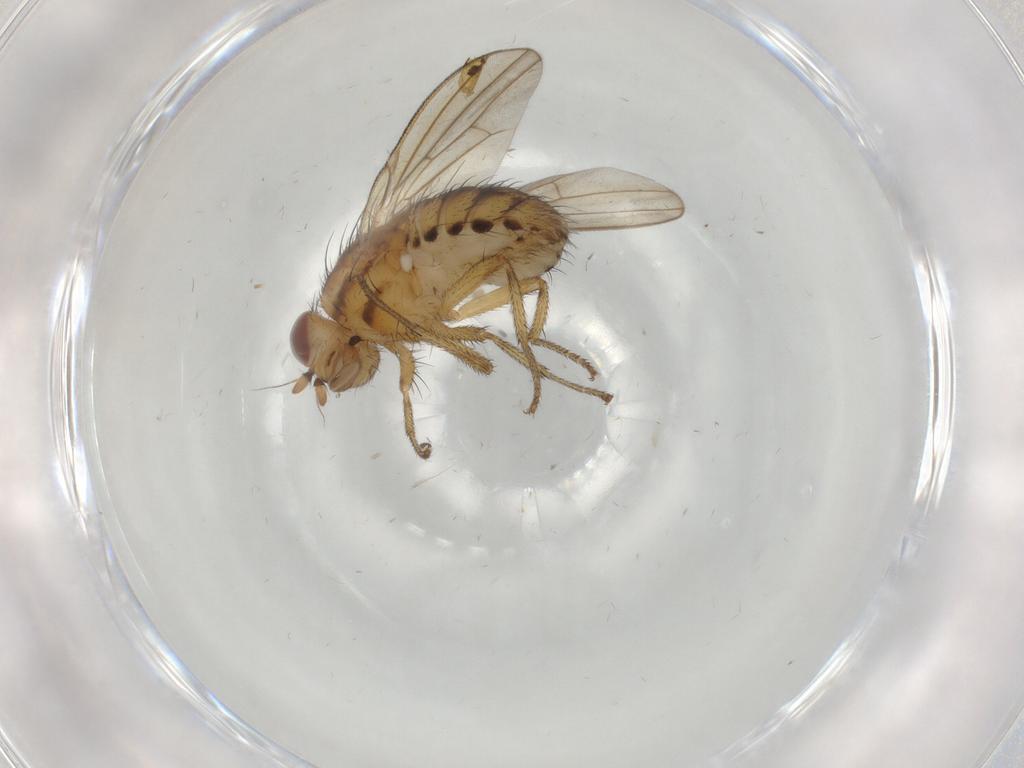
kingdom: Animalia
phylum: Arthropoda
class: Insecta
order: Diptera
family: Lauxaniidae
